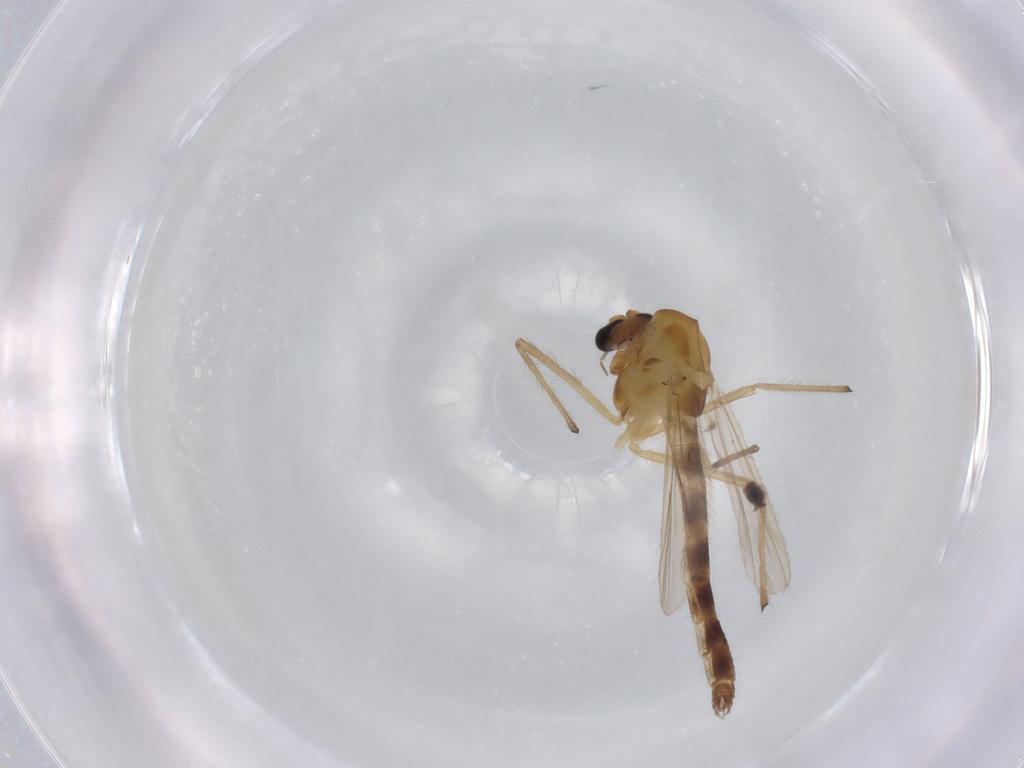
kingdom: Animalia
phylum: Arthropoda
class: Insecta
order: Diptera
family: Chironomidae
